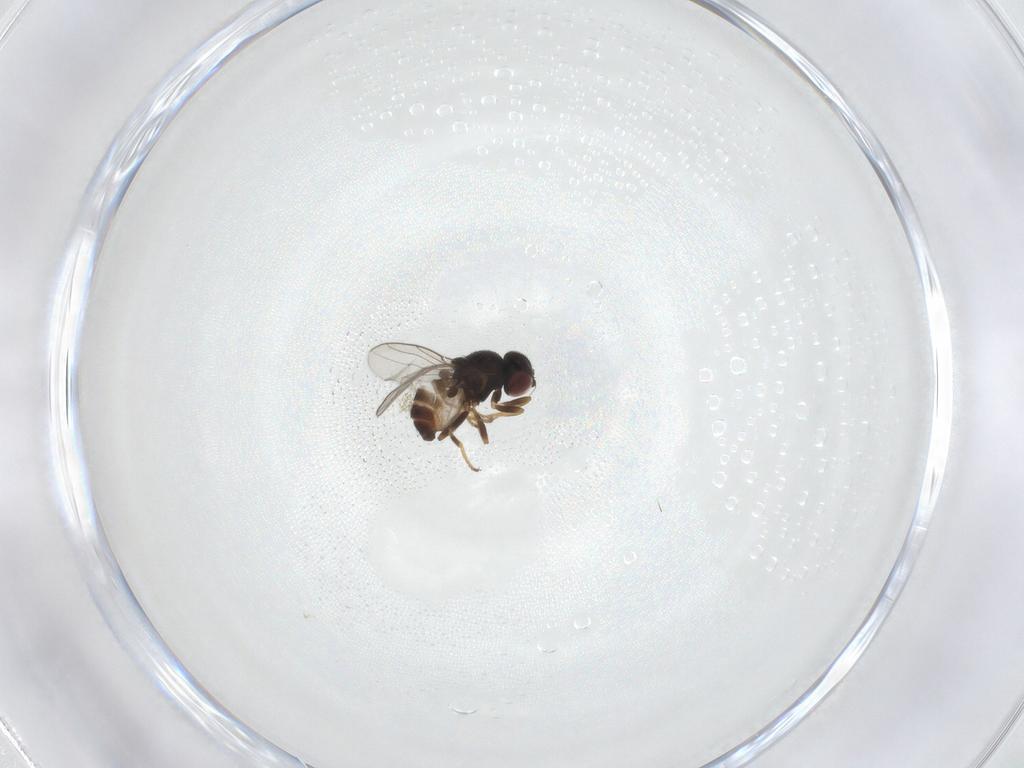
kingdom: Animalia
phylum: Arthropoda
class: Insecta
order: Diptera
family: Chloropidae
